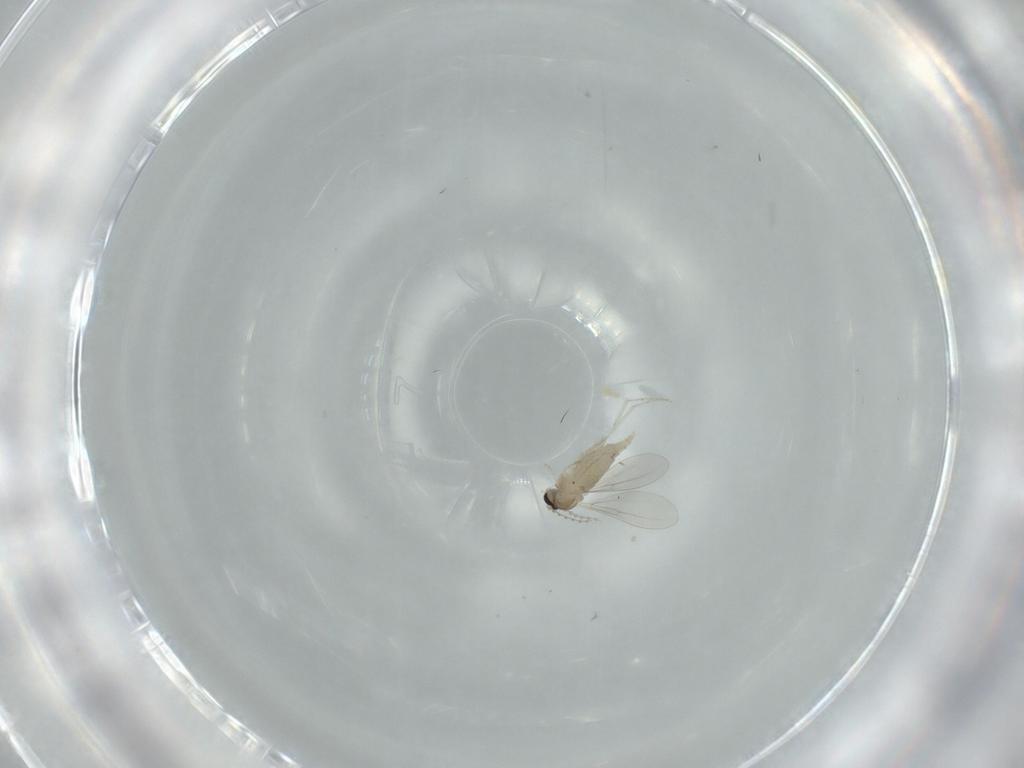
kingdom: Animalia
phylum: Arthropoda
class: Insecta
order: Diptera
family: Cecidomyiidae
